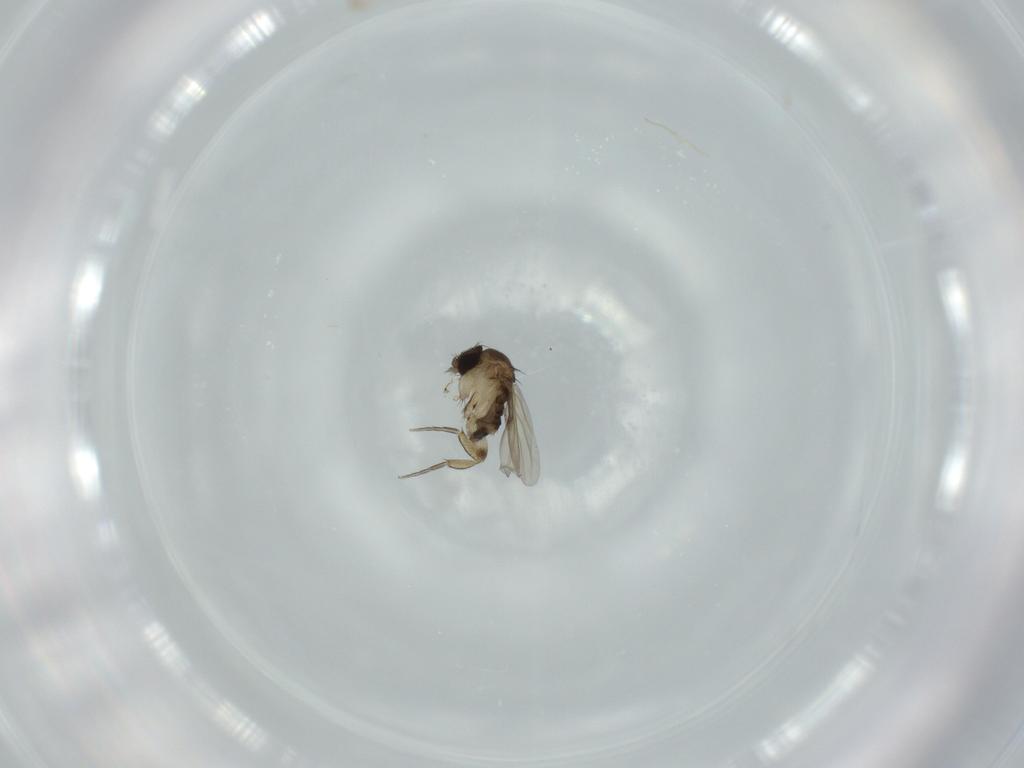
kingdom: Animalia
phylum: Arthropoda
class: Insecta
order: Diptera
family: Phoridae
